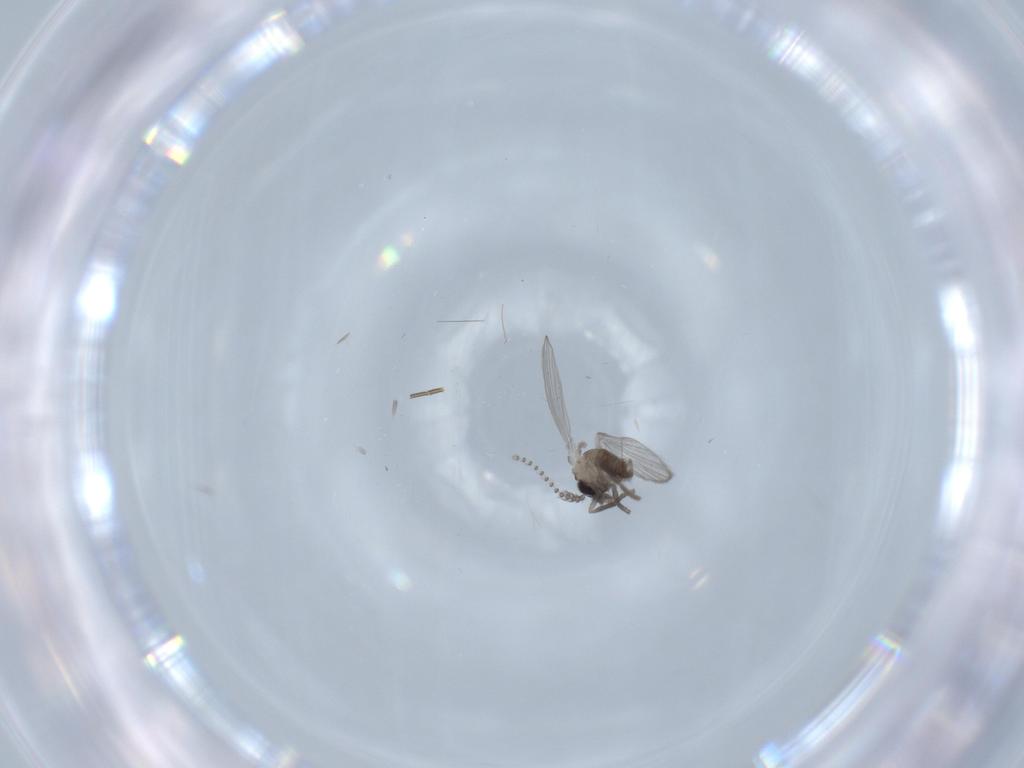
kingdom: Animalia
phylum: Arthropoda
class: Insecta
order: Diptera
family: Psychodidae
